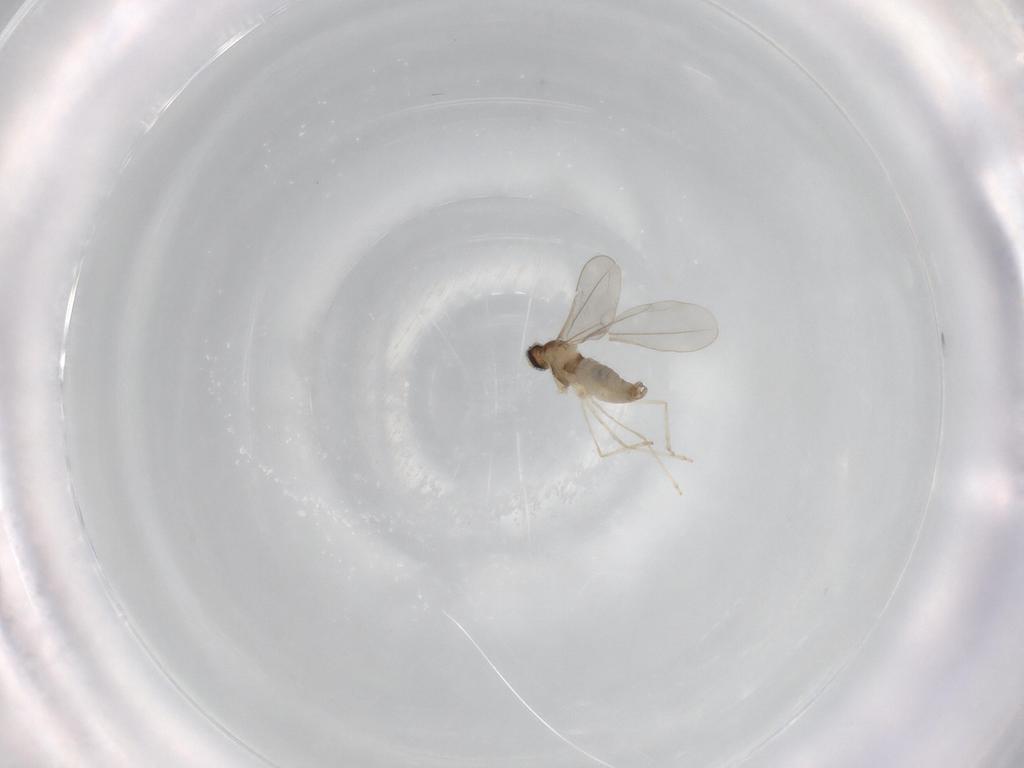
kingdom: Animalia
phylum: Arthropoda
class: Insecta
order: Diptera
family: Cecidomyiidae
